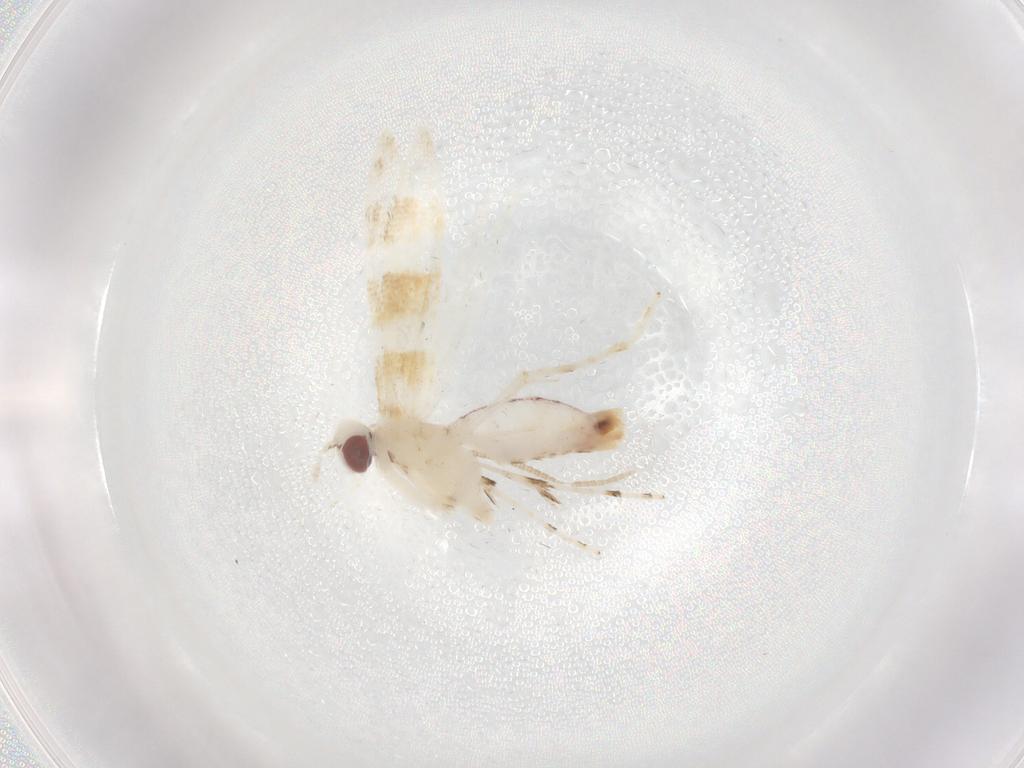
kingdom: Animalia
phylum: Arthropoda
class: Insecta
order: Lepidoptera
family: Gracillariidae
